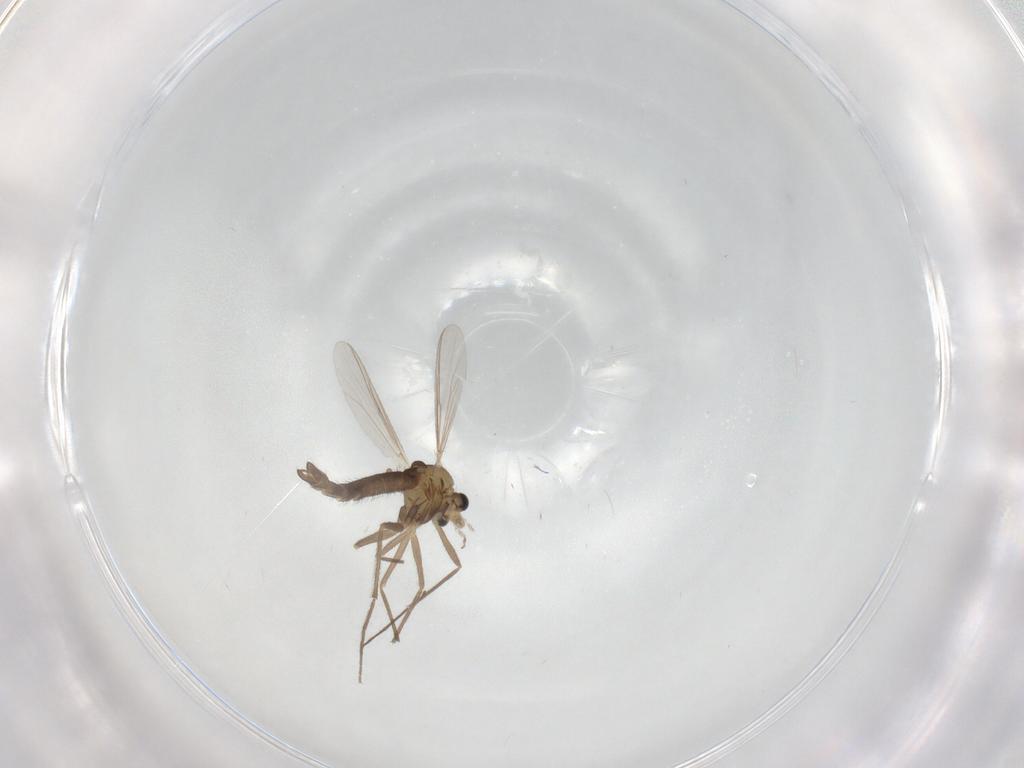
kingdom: Animalia
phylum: Arthropoda
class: Insecta
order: Diptera
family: Chironomidae
